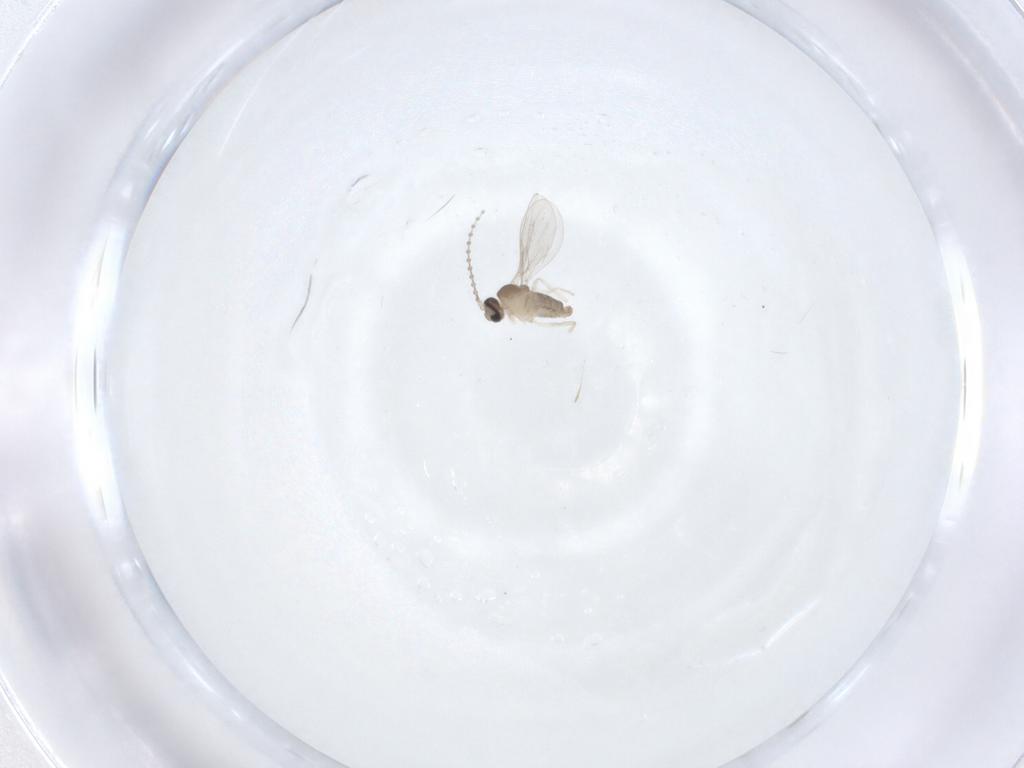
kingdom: Animalia
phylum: Arthropoda
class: Insecta
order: Diptera
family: Cecidomyiidae
